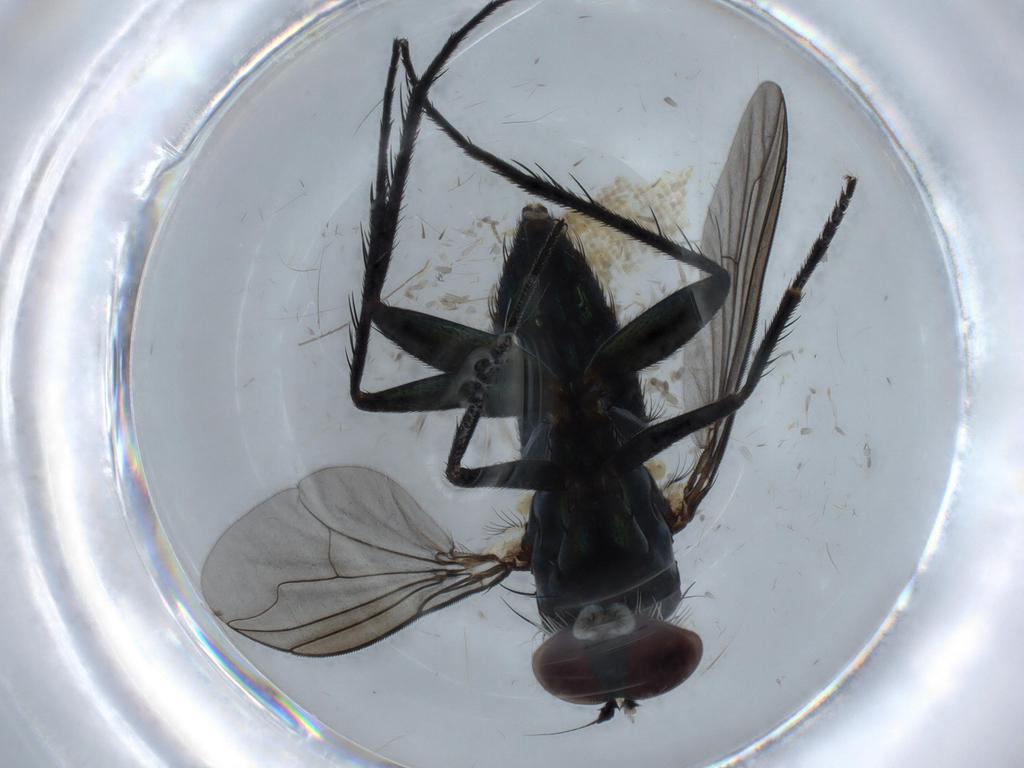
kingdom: Animalia
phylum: Arthropoda
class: Insecta
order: Diptera
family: Dolichopodidae
